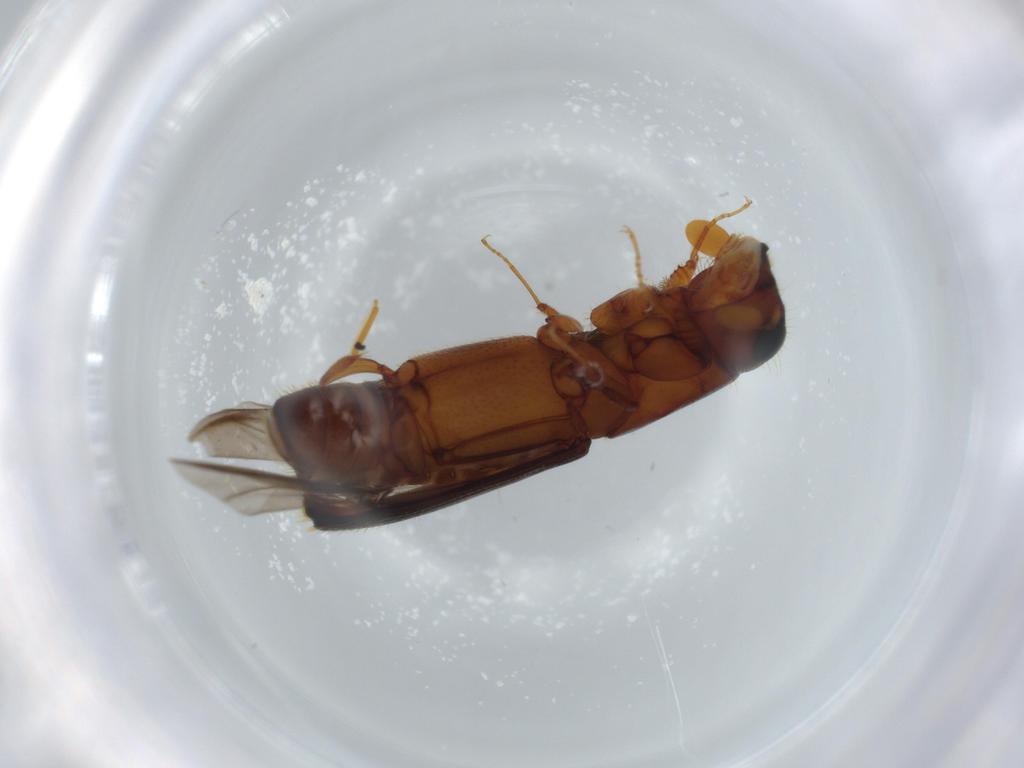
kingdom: Animalia
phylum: Arthropoda
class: Insecta
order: Coleoptera
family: Curculionidae
